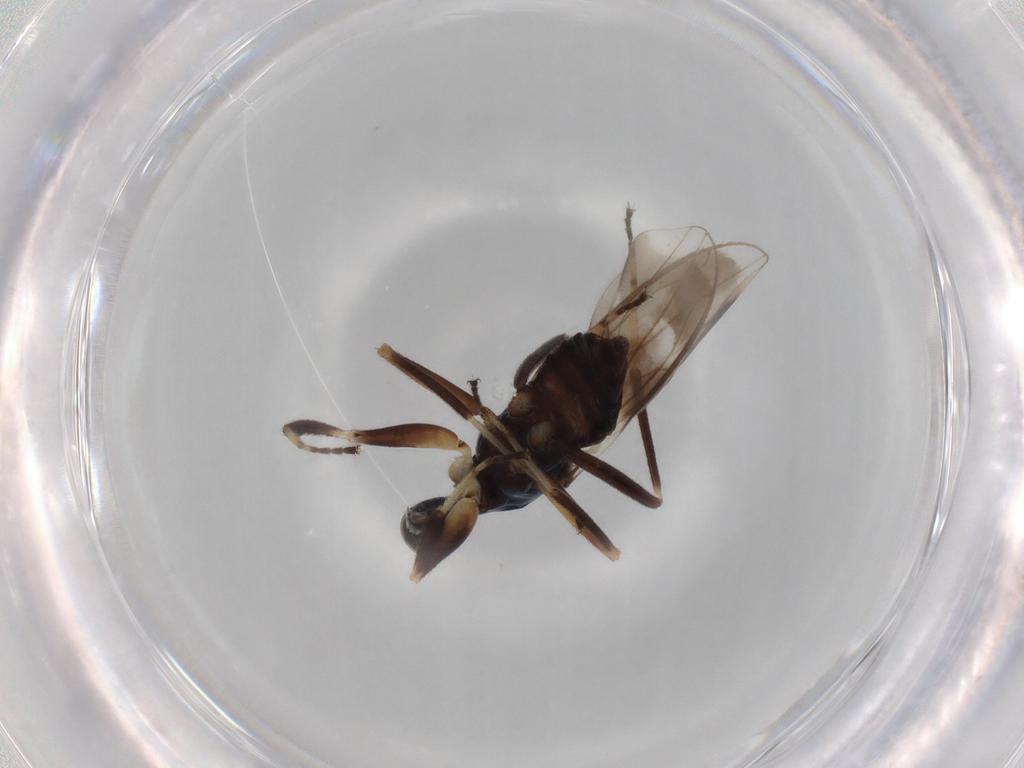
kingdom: Animalia
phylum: Arthropoda
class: Insecta
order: Diptera
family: Hybotidae
